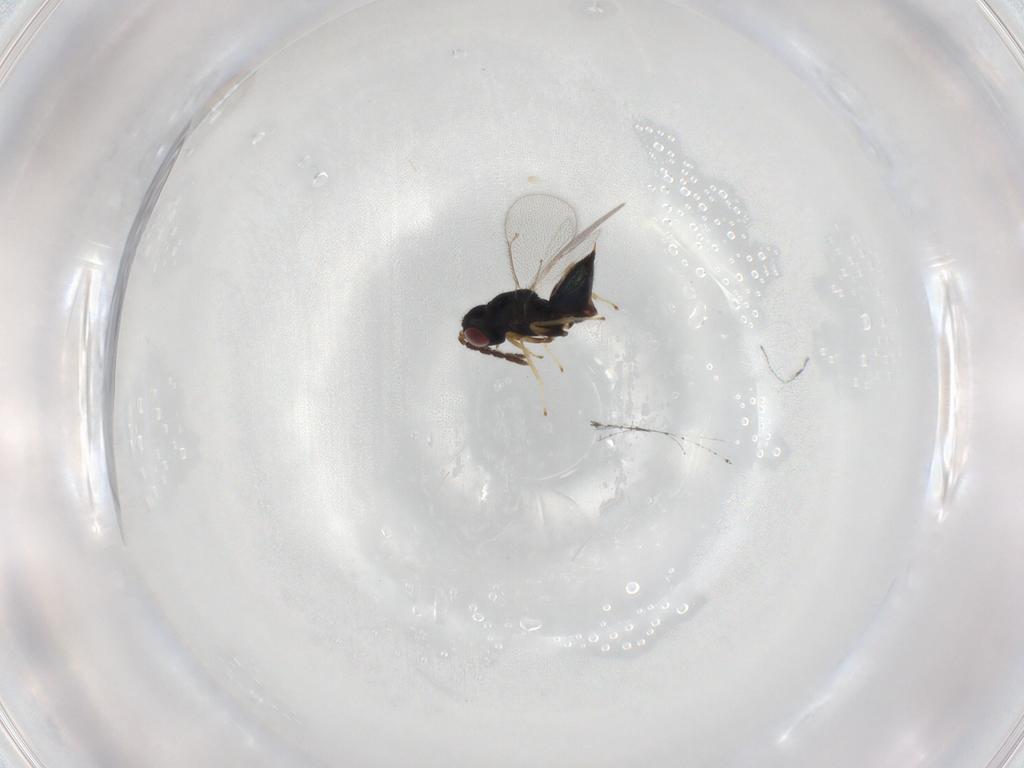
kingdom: Animalia
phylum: Arthropoda
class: Insecta
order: Hymenoptera
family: Eulophidae
